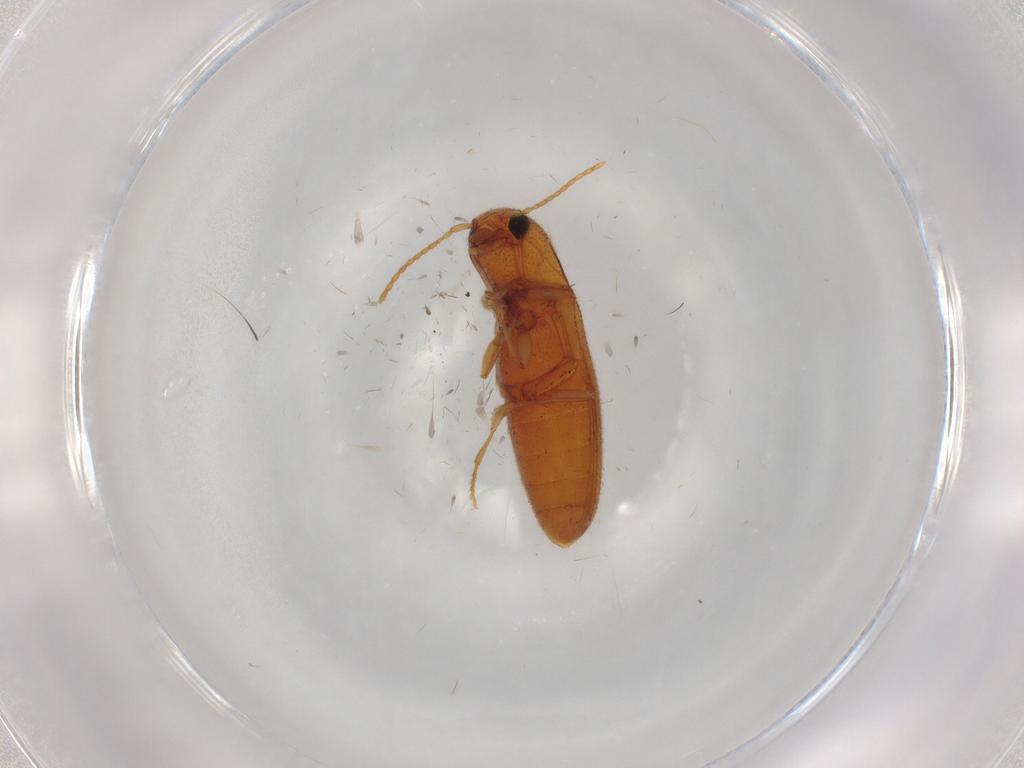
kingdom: Animalia
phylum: Arthropoda
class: Insecta
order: Coleoptera
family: Elateridae
